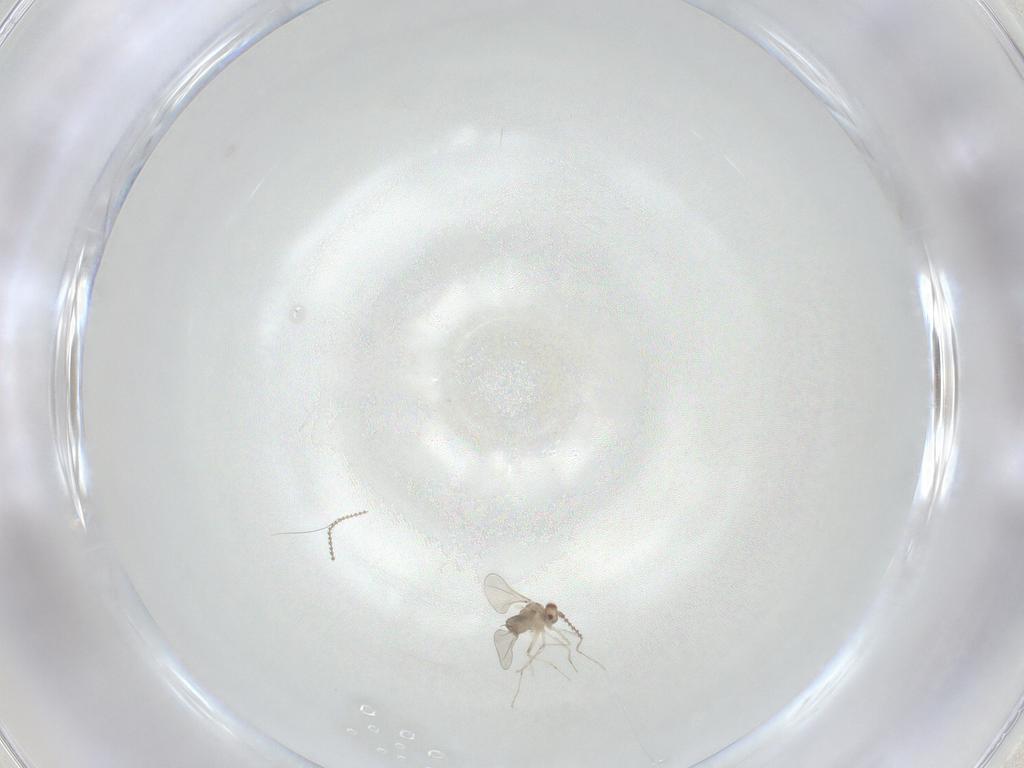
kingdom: Animalia
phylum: Arthropoda
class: Insecta
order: Diptera
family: Cecidomyiidae
